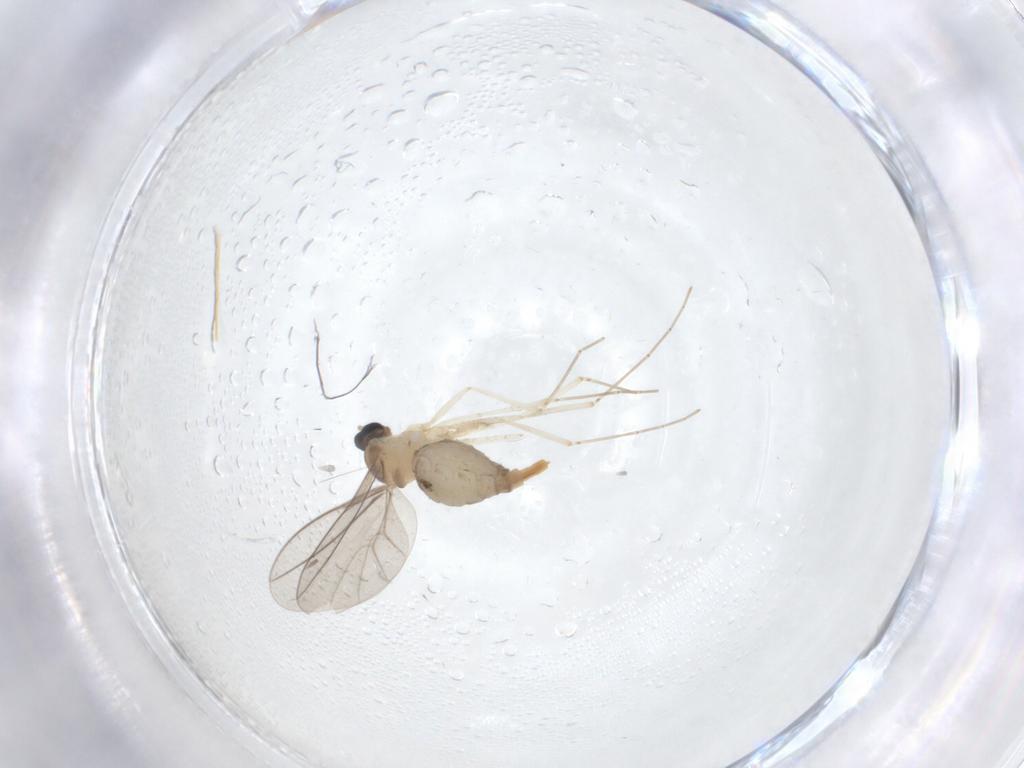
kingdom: Animalia
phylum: Arthropoda
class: Insecta
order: Diptera
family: Cecidomyiidae
